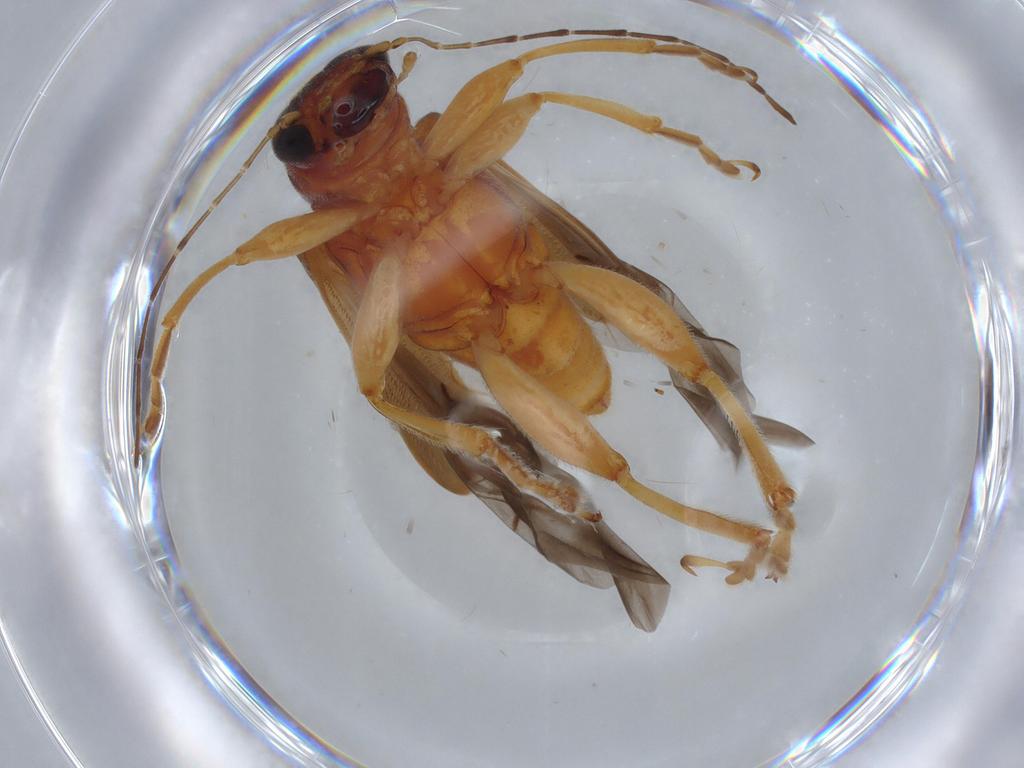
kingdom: Animalia
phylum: Arthropoda
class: Insecta
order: Coleoptera
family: Chrysomelidae
